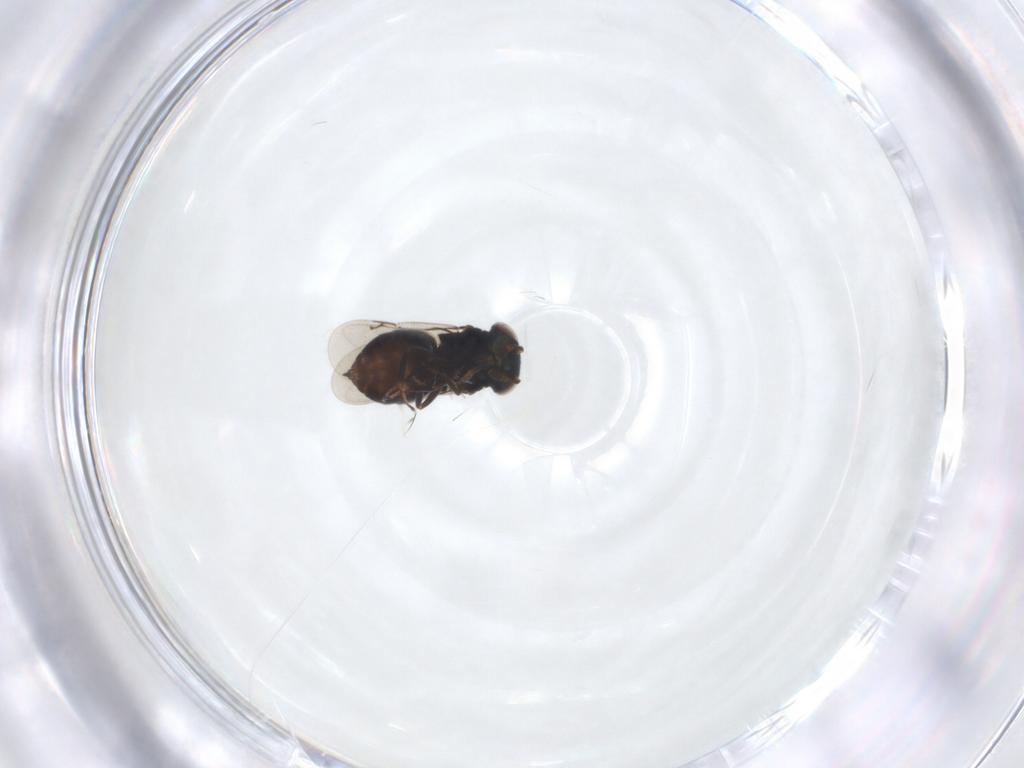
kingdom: Animalia
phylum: Arthropoda
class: Insecta
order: Hymenoptera
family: Eunotidae
